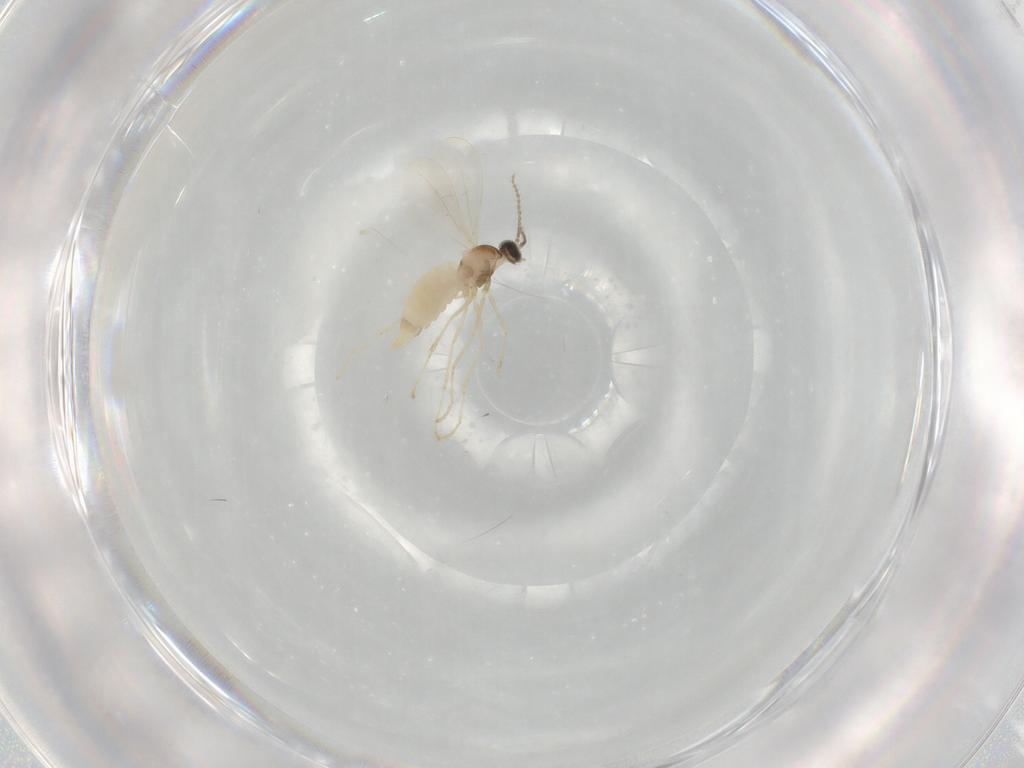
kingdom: Animalia
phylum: Arthropoda
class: Insecta
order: Diptera
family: Cecidomyiidae
